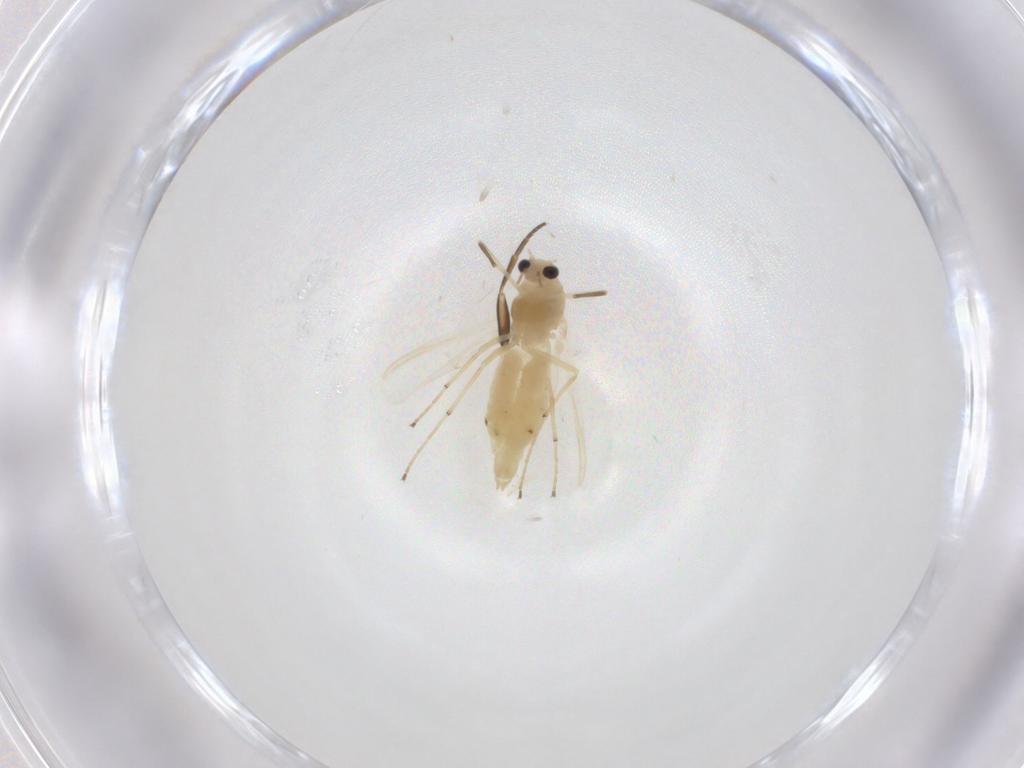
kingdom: Animalia
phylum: Arthropoda
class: Insecta
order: Diptera
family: Chironomidae
